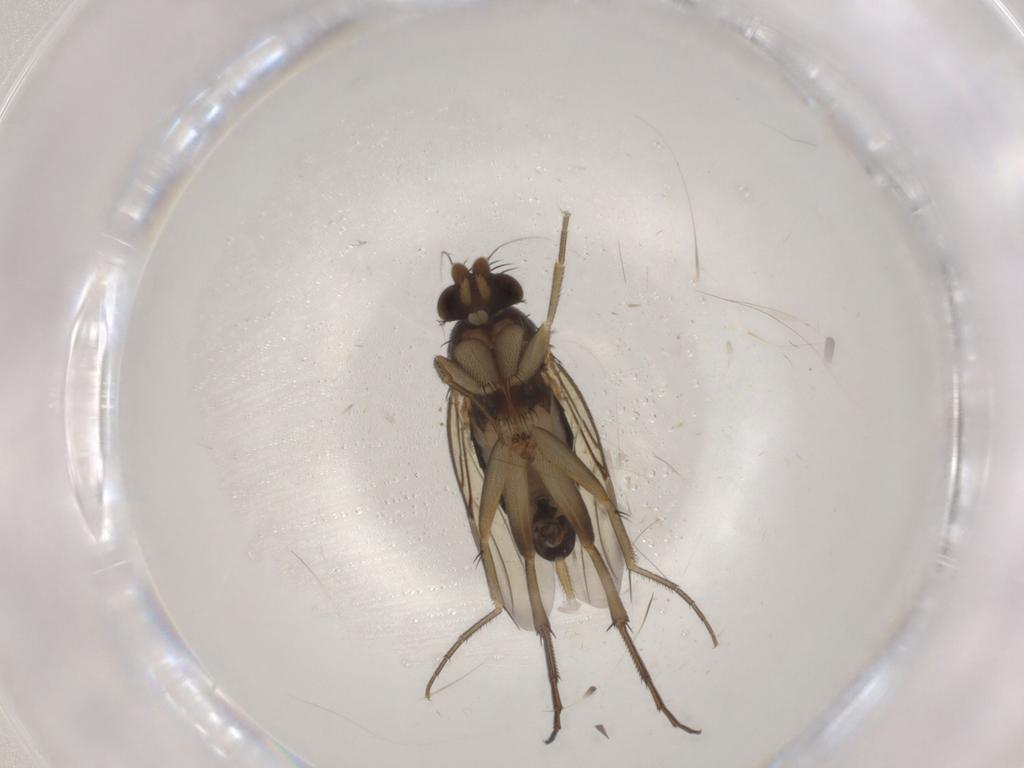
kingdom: Animalia
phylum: Arthropoda
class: Insecta
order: Diptera
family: Phoridae
